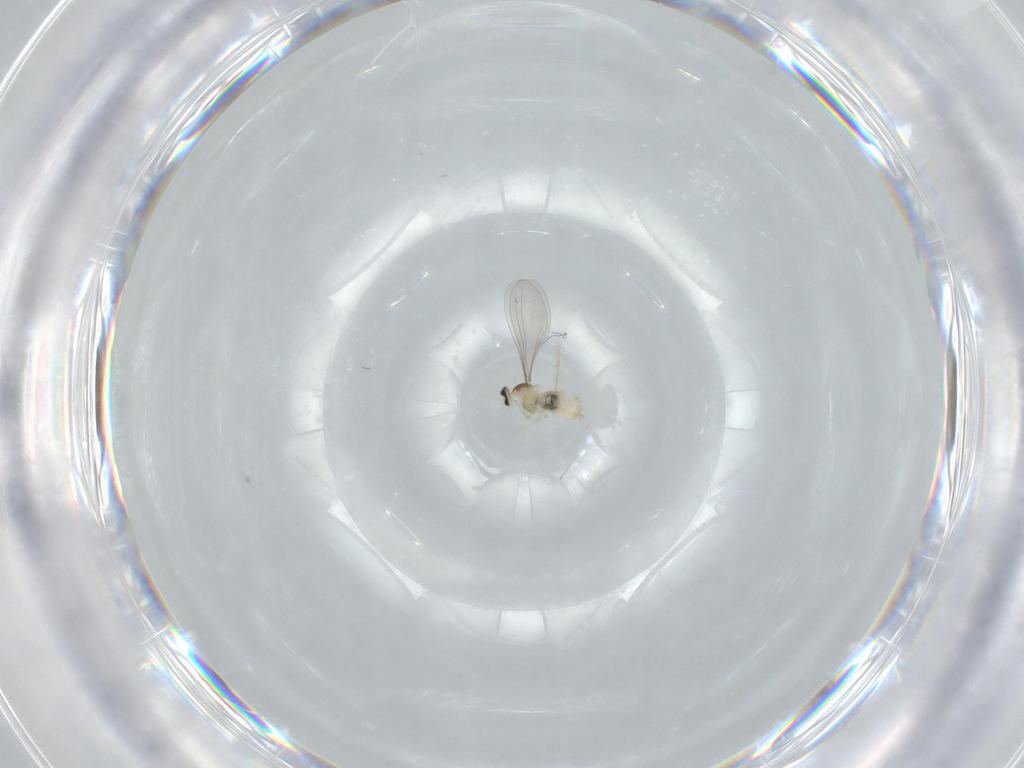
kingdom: Animalia
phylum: Arthropoda
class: Insecta
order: Diptera
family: Cecidomyiidae
